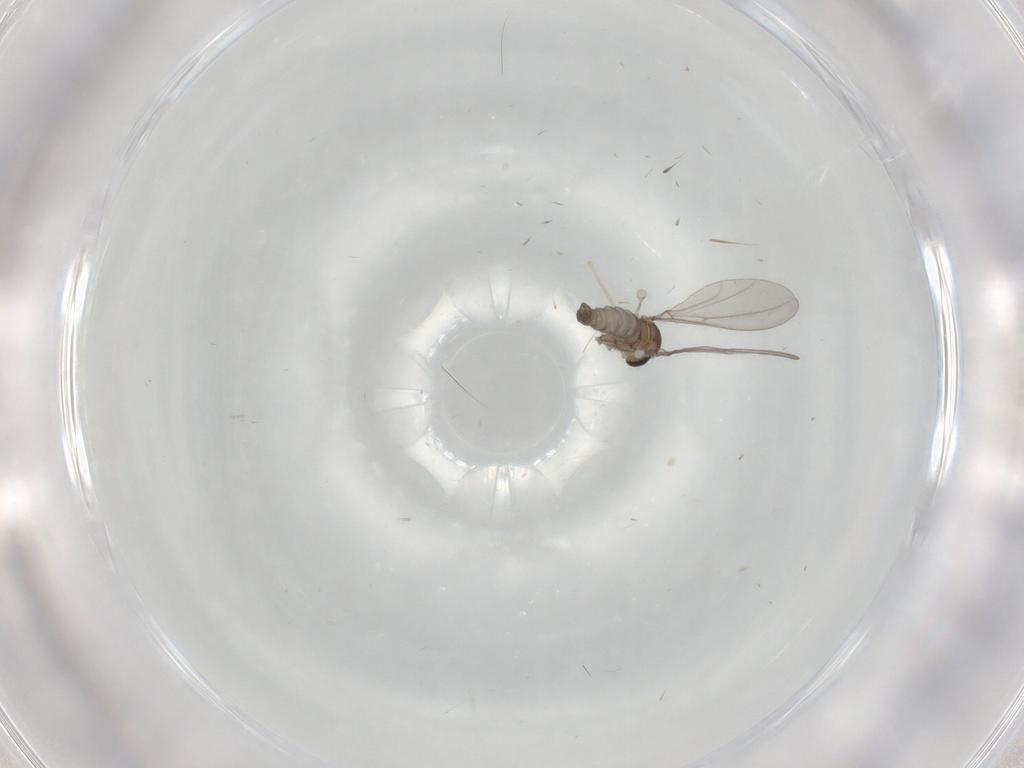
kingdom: Animalia
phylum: Arthropoda
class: Insecta
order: Diptera
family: Cecidomyiidae
